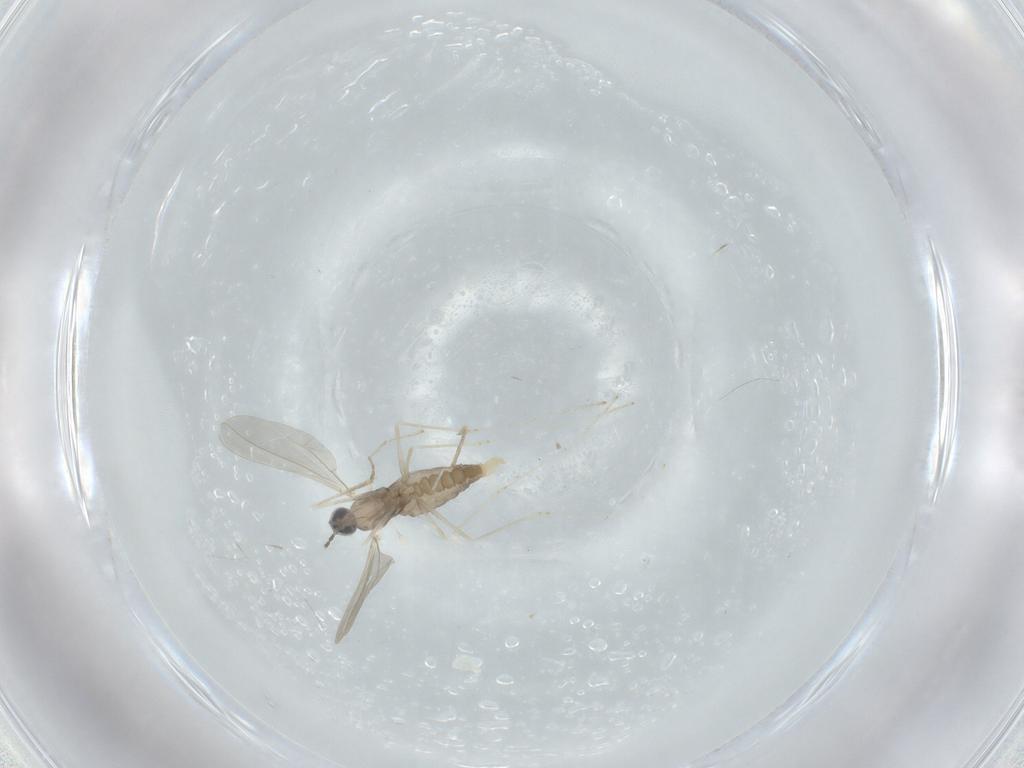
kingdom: Animalia
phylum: Arthropoda
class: Insecta
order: Diptera
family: Cecidomyiidae
